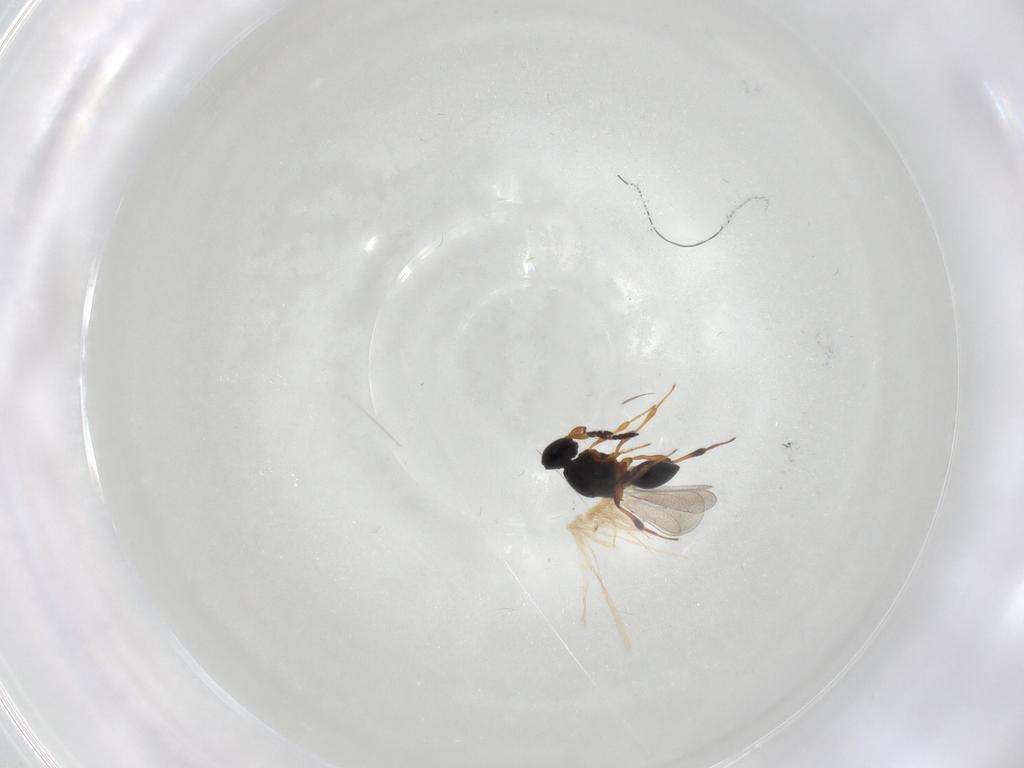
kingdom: Animalia
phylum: Arthropoda
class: Insecta
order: Hymenoptera
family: Platygastridae
